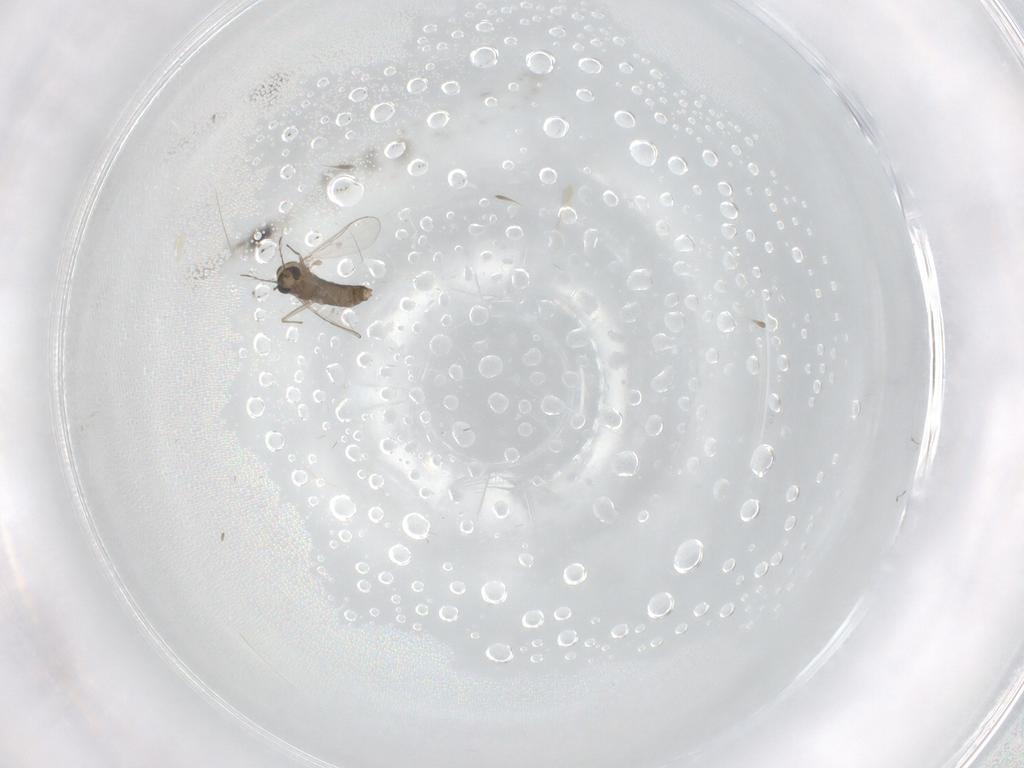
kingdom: Animalia
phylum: Arthropoda
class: Insecta
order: Diptera
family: Chironomidae
